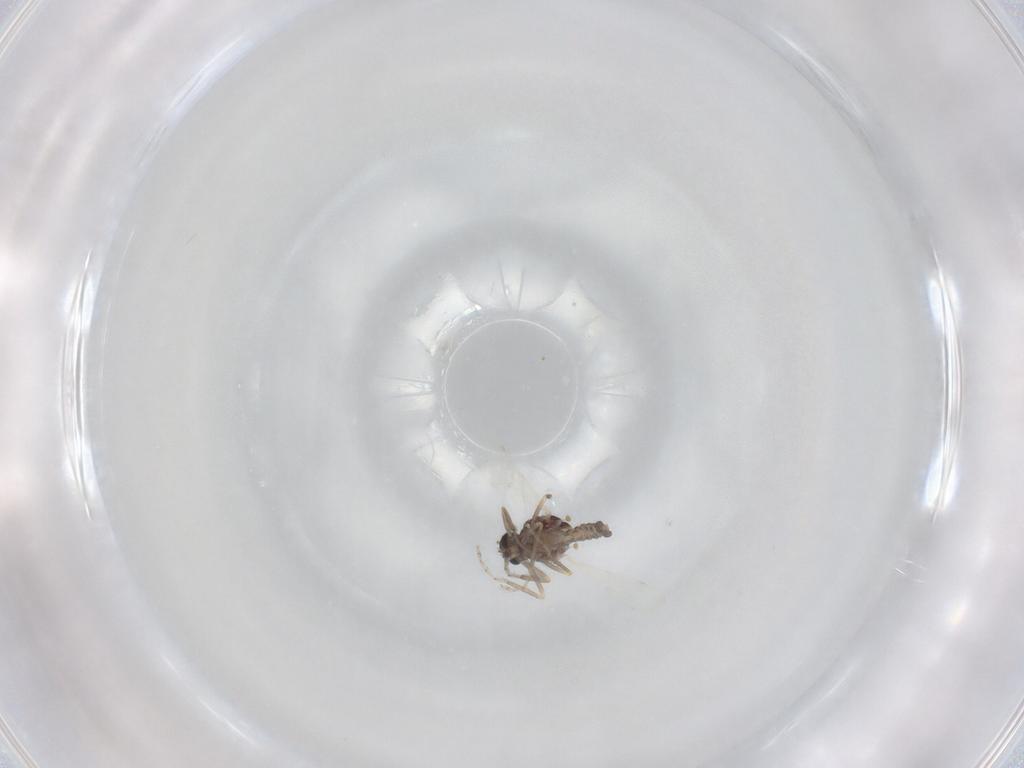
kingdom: Animalia
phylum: Arthropoda
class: Insecta
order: Diptera
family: Ceratopogonidae
